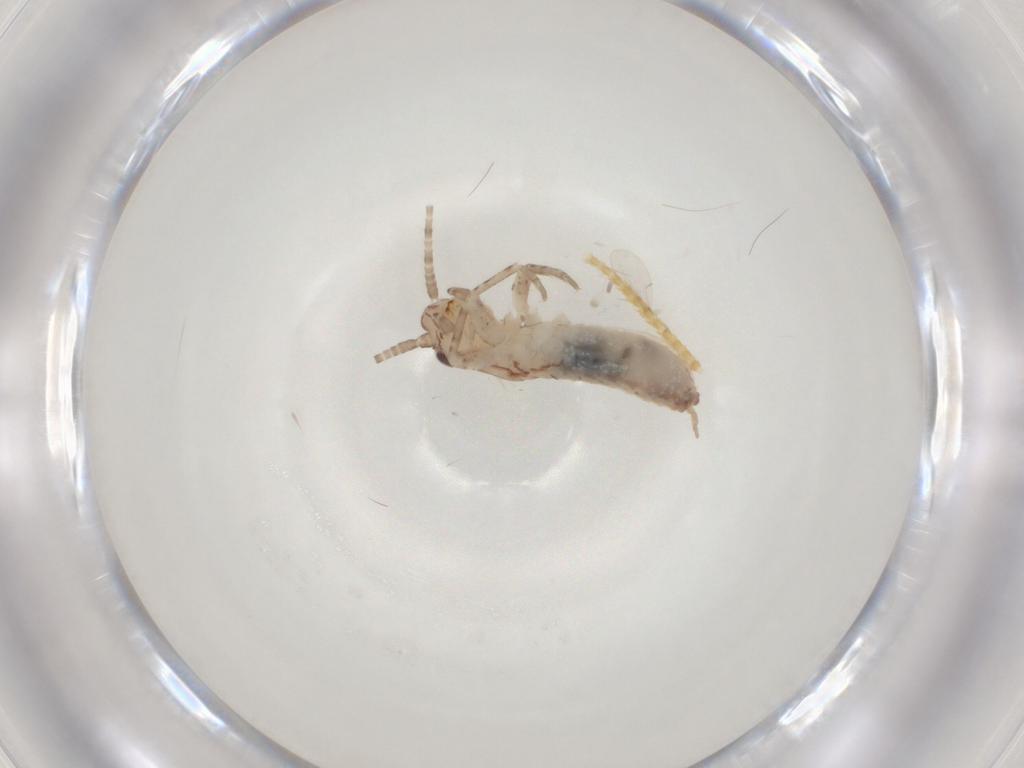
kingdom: Animalia
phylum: Arthropoda
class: Insecta
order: Orthoptera
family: Mogoplistidae
